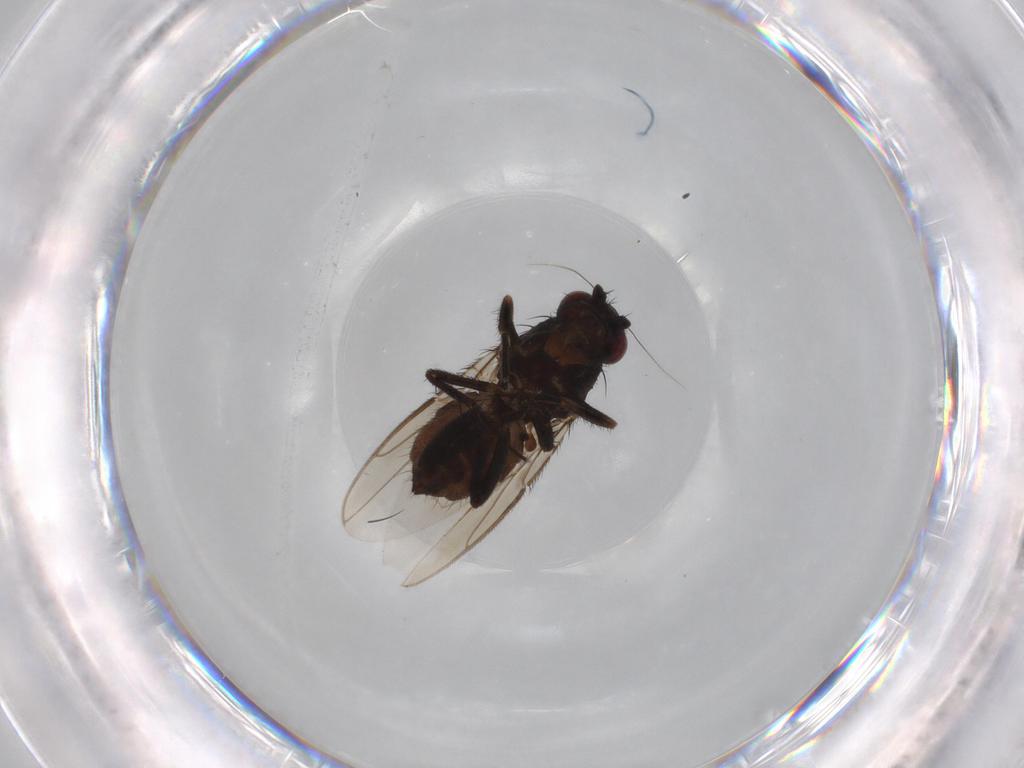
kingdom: Animalia
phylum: Arthropoda
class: Insecta
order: Diptera
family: Sphaeroceridae
